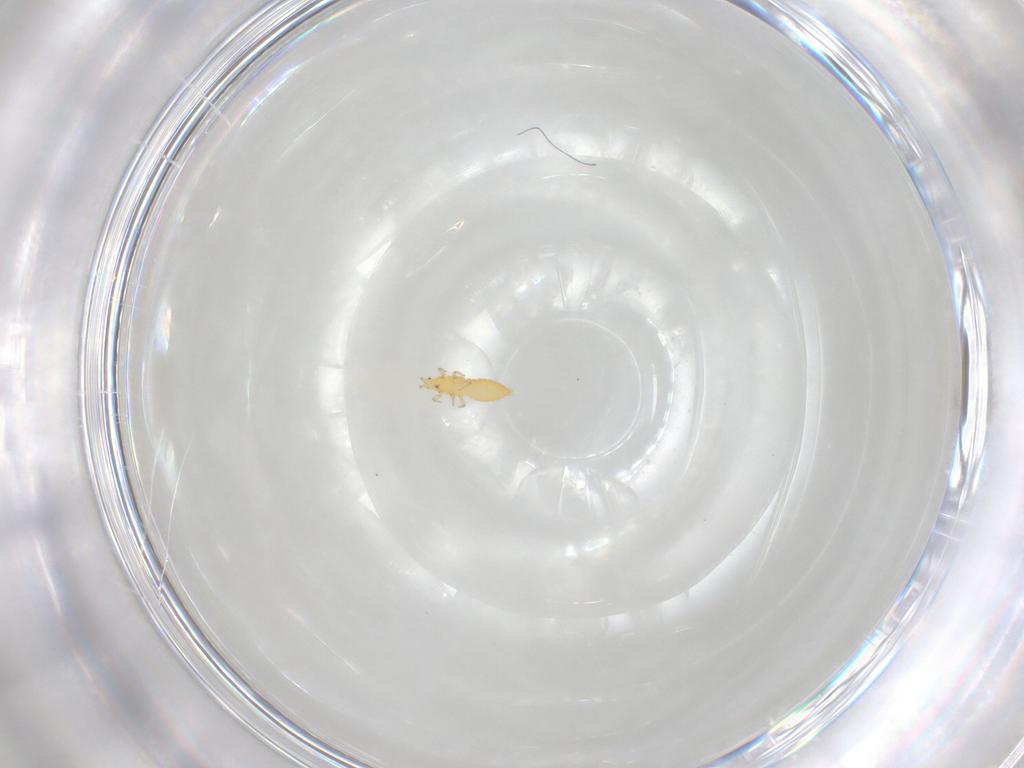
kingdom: Animalia
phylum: Arthropoda
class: Insecta
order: Thysanoptera
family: Thripidae
